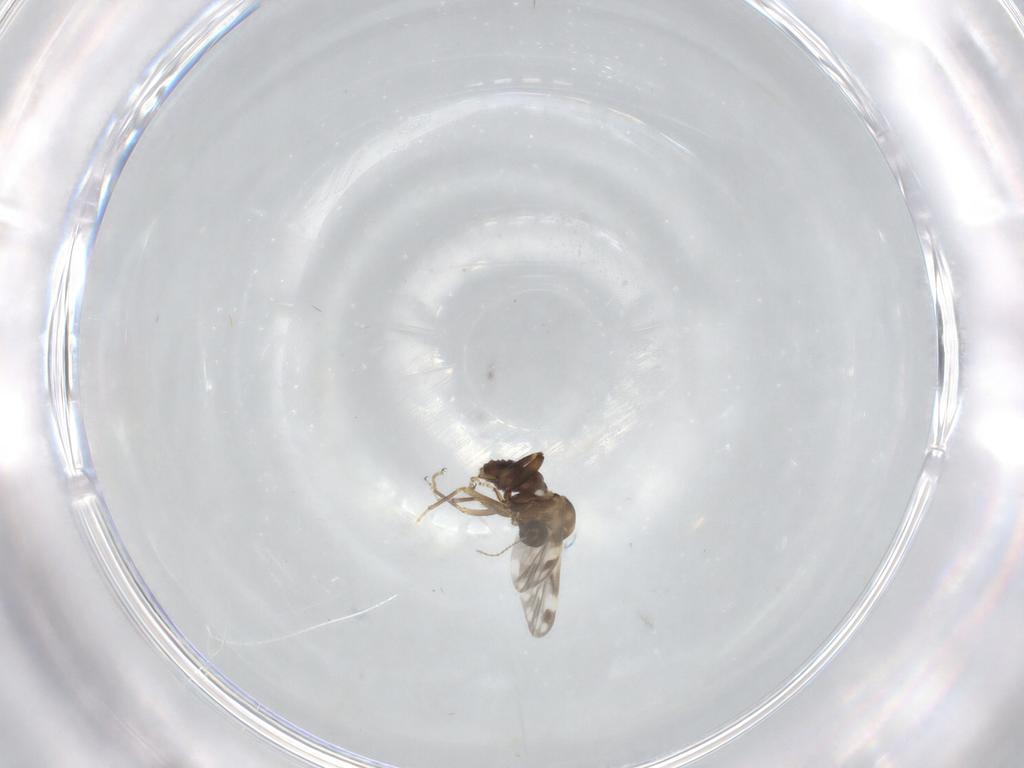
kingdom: Animalia
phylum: Arthropoda
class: Insecta
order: Diptera
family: Ceratopogonidae
